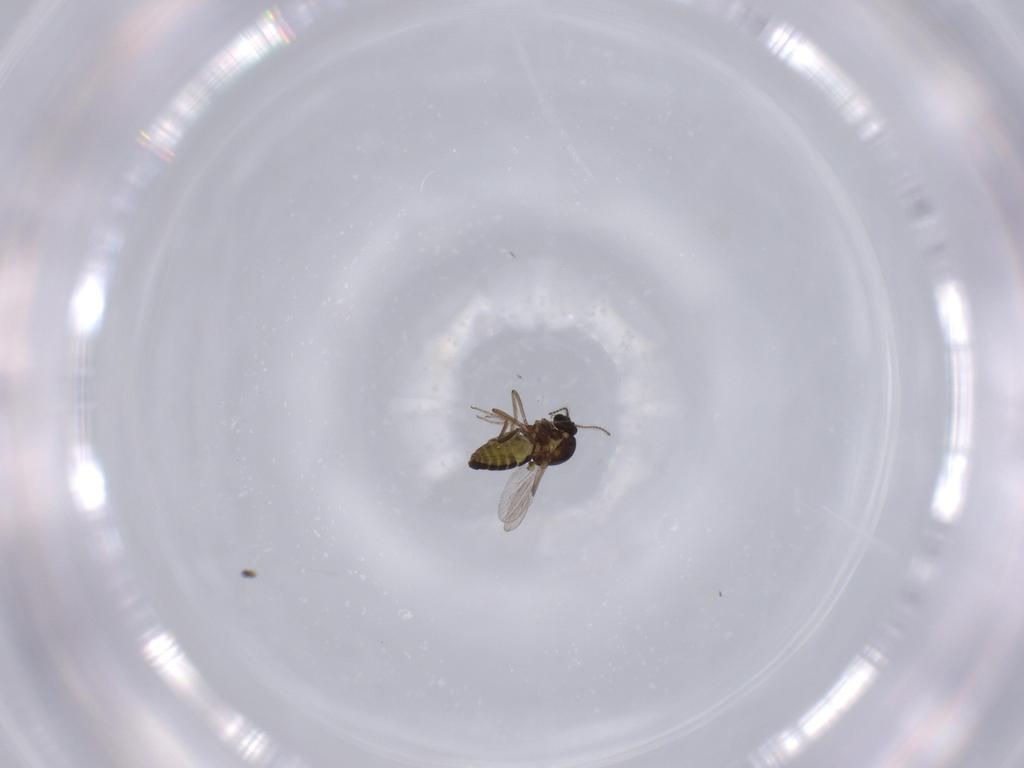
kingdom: Animalia
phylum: Arthropoda
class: Insecta
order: Diptera
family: Ceratopogonidae
